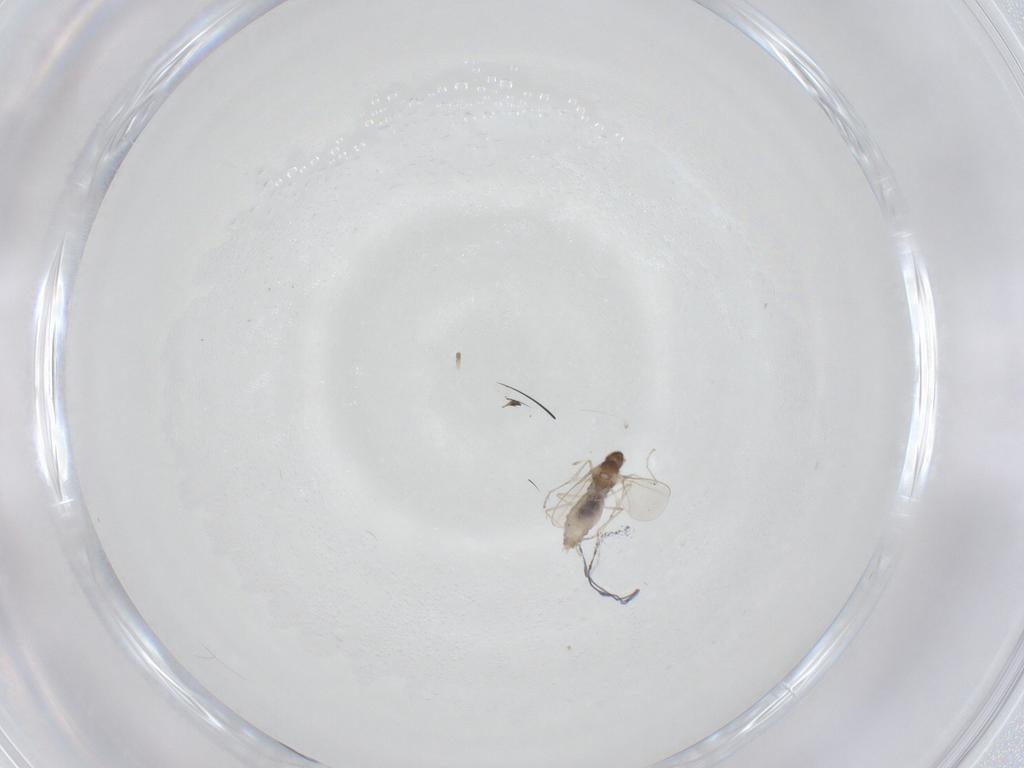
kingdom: Animalia
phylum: Arthropoda
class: Insecta
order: Diptera
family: Cecidomyiidae
